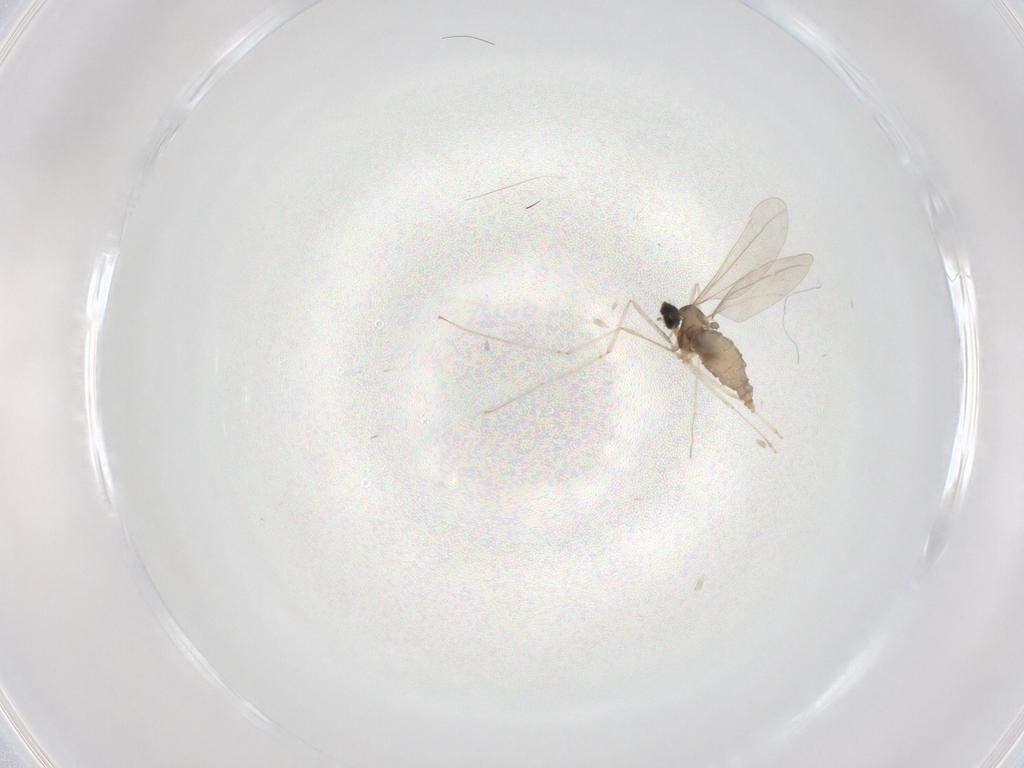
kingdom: Animalia
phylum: Arthropoda
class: Insecta
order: Diptera
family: Cecidomyiidae
